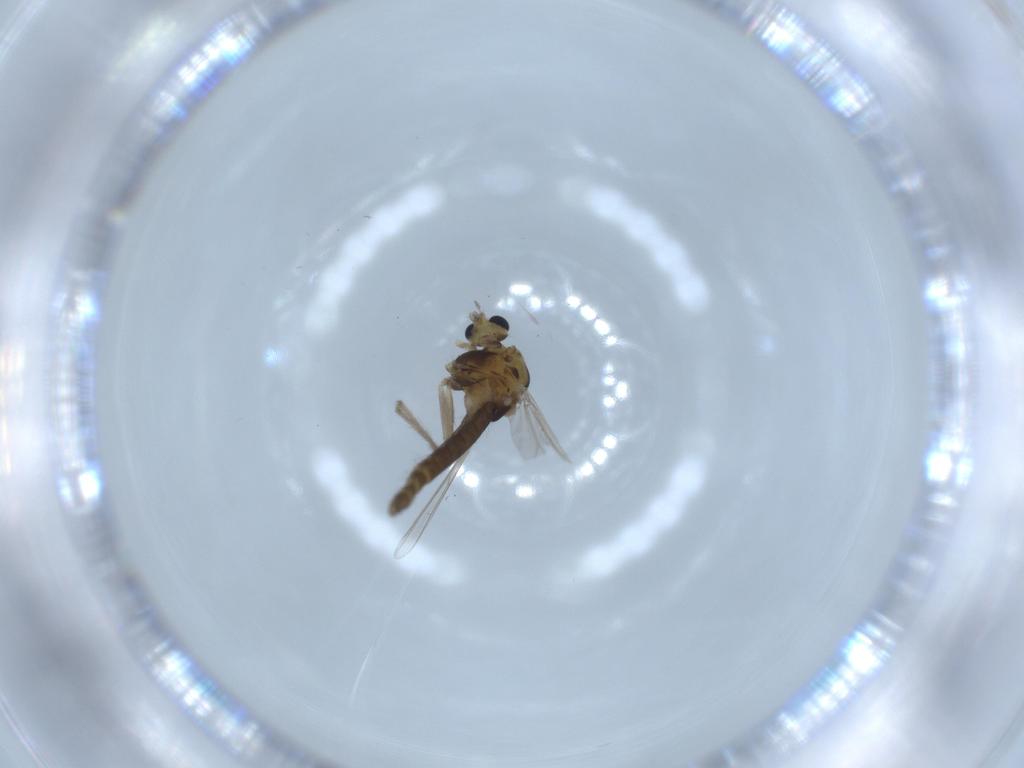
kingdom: Animalia
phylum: Arthropoda
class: Insecta
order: Diptera
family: Chironomidae
